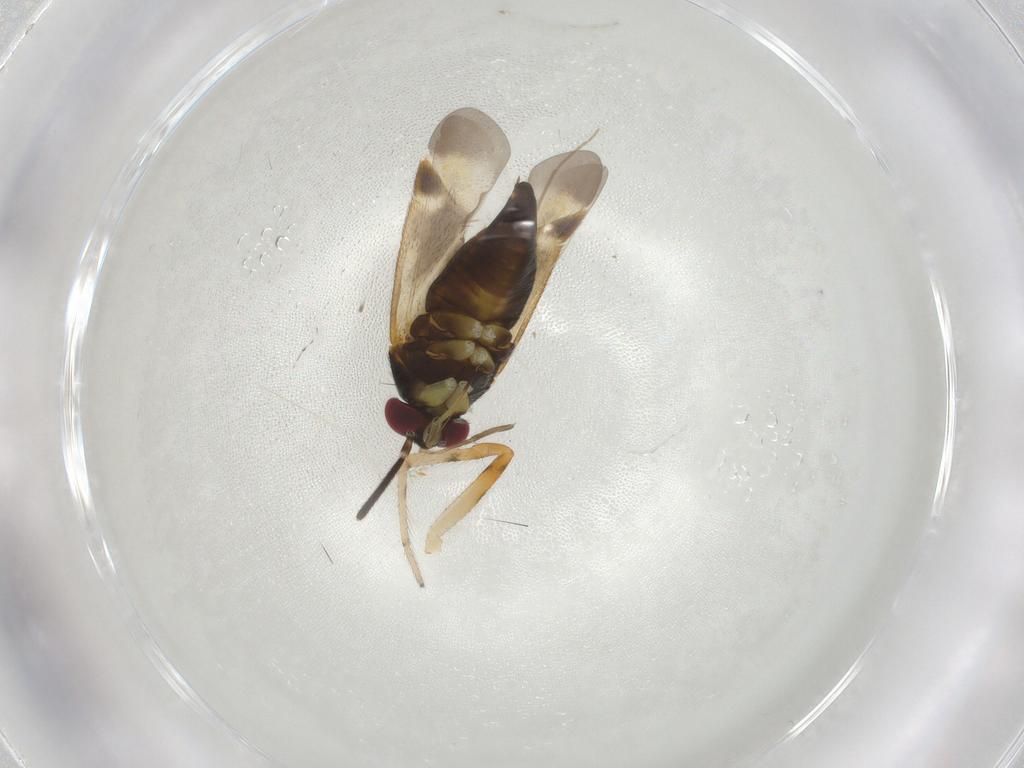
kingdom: Animalia
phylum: Arthropoda
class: Insecta
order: Hemiptera
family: Miridae
